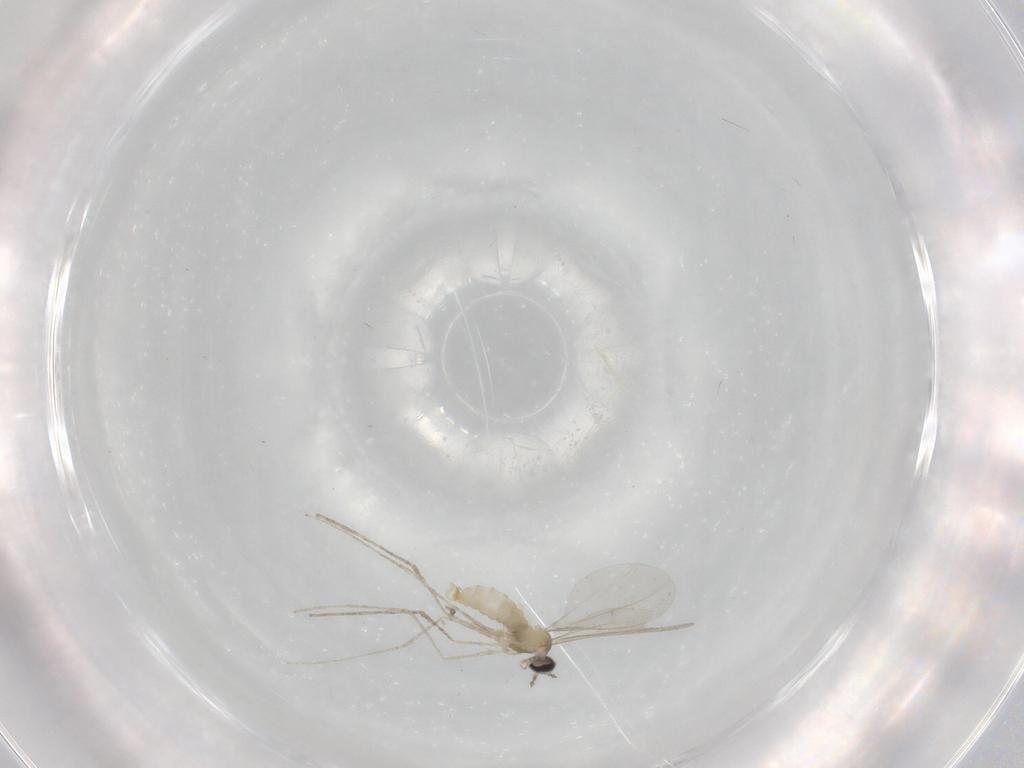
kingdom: Animalia
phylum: Arthropoda
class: Insecta
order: Diptera
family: Cecidomyiidae
